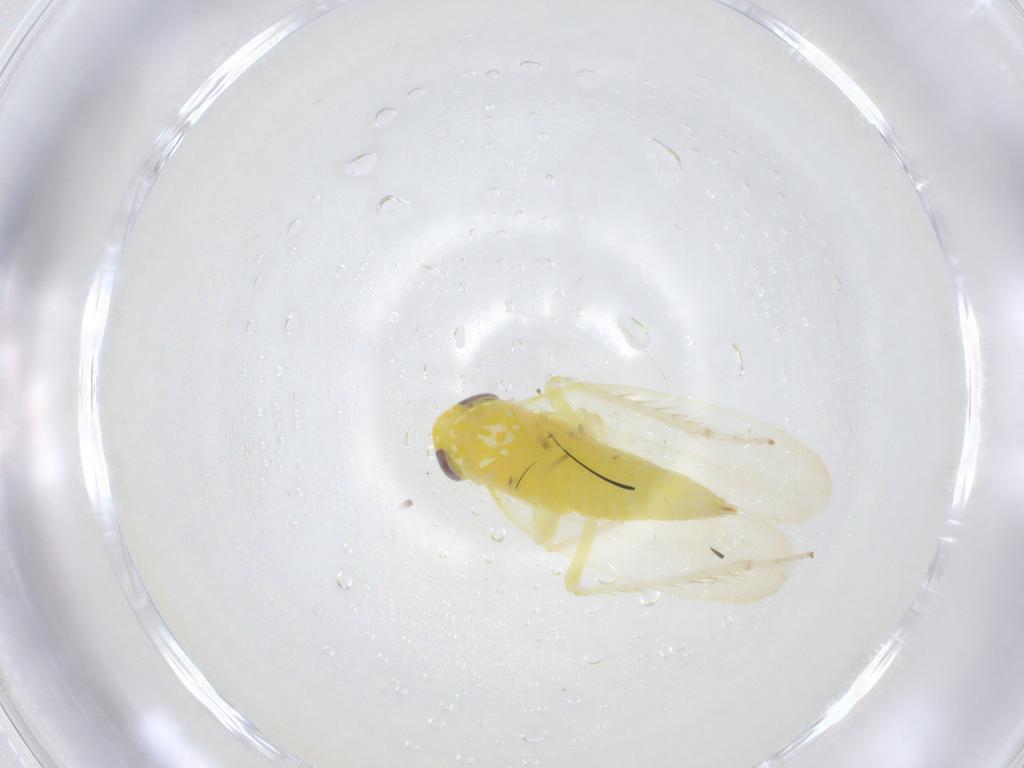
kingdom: Animalia
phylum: Arthropoda
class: Insecta
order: Hemiptera
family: Cicadellidae
